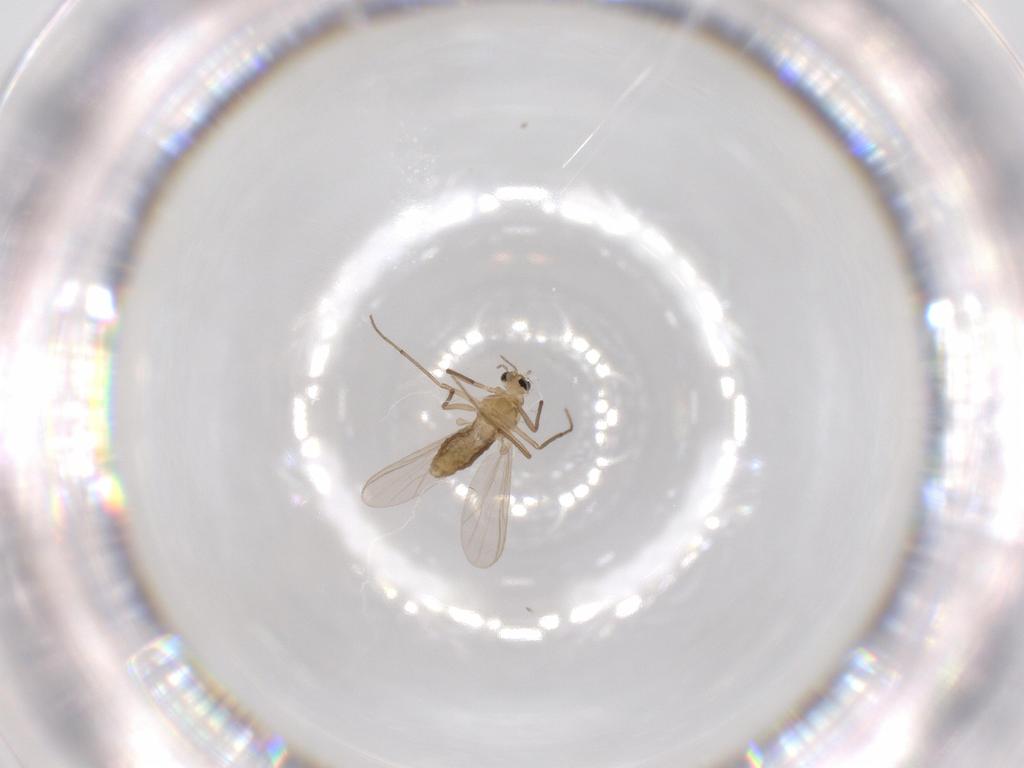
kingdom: Animalia
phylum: Arthropoda
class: Insecta
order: Diptera
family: Chironomidae
